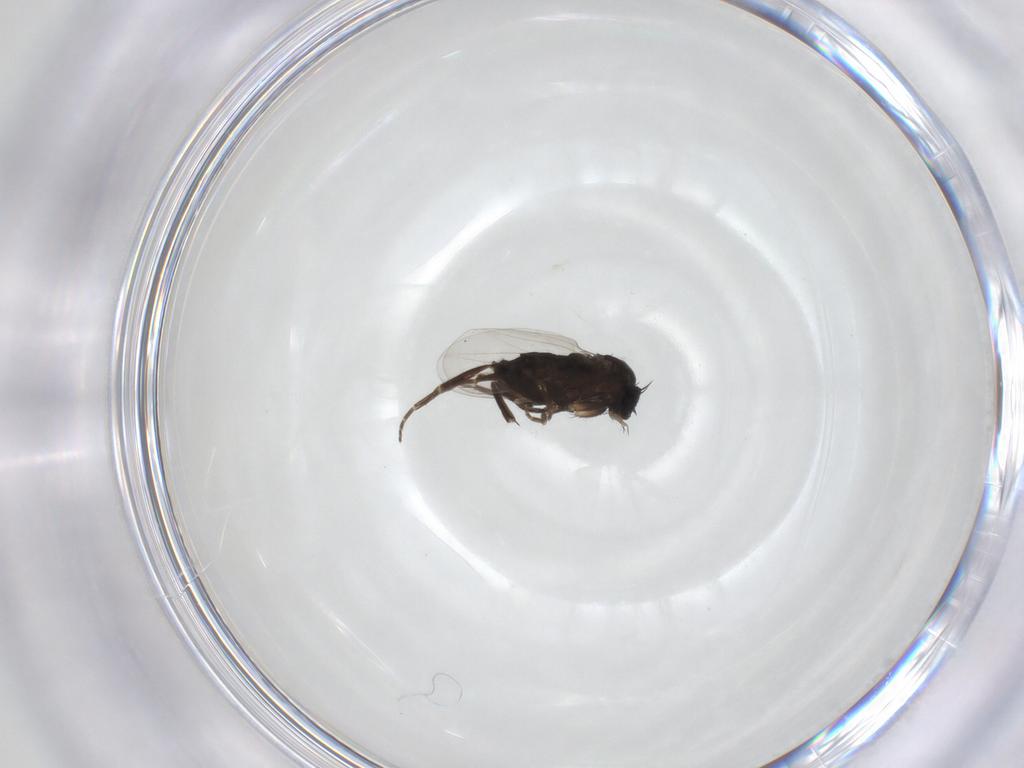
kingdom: Animalia
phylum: Arthropoda
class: Insecta
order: Diptera
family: Phoridae
